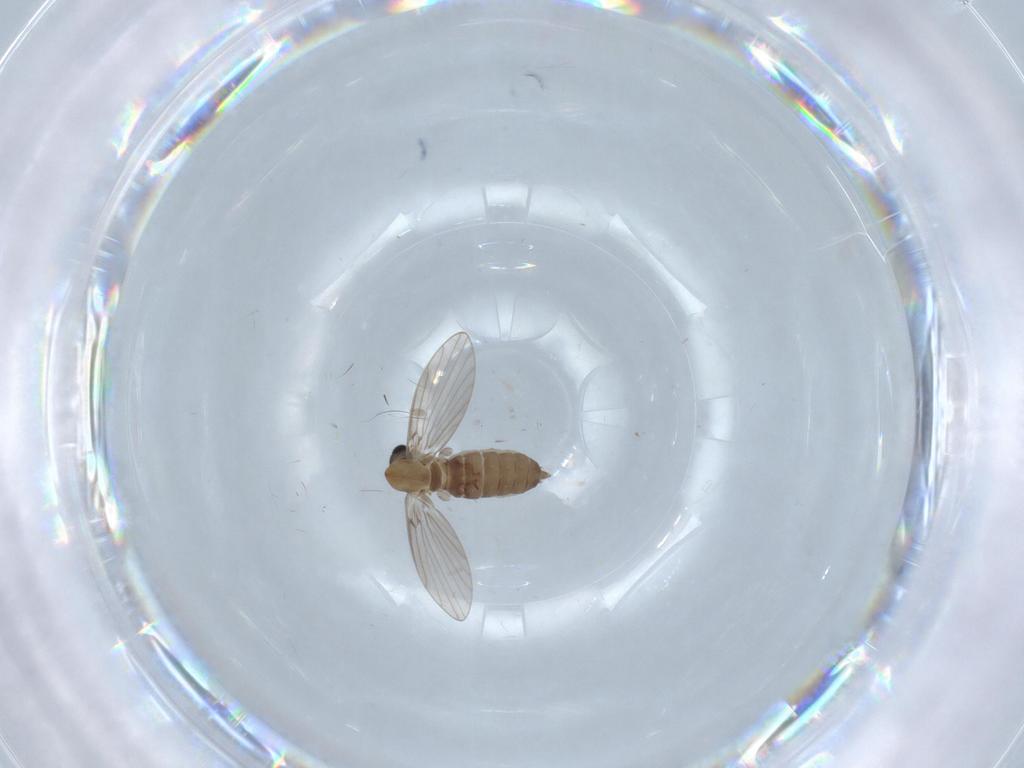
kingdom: Animalia
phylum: Arthropoda
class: Insecta
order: Diptera
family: Tabanidae
